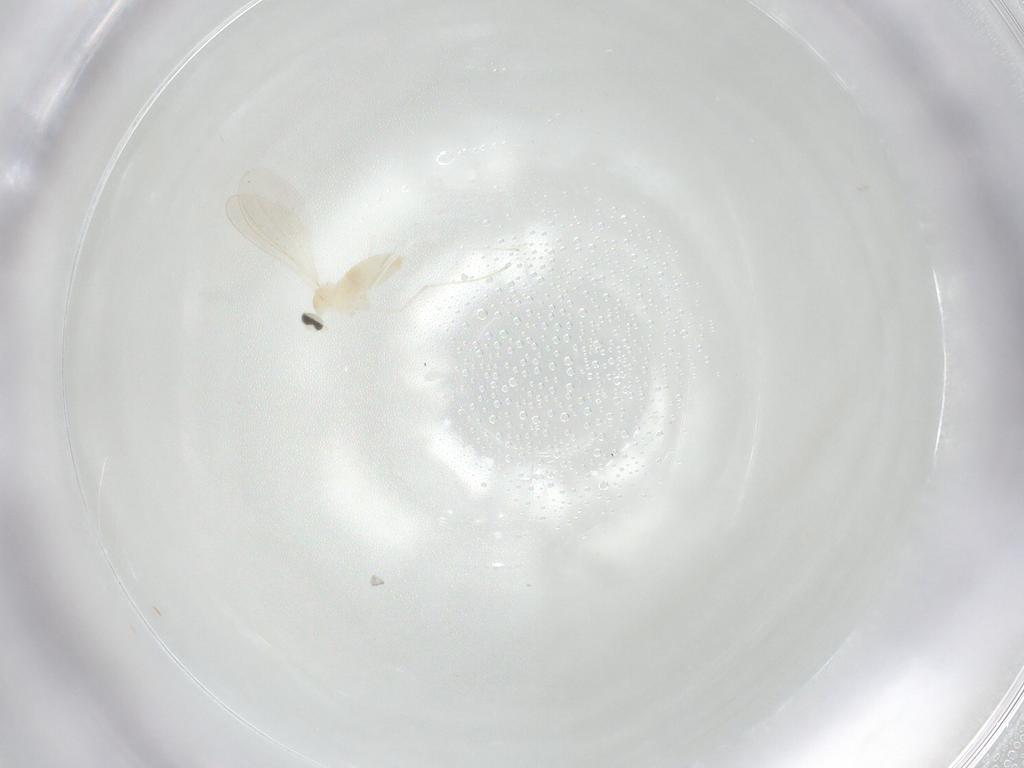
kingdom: Animalia
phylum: Arthropoda
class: Insecta
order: Diptera
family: Cecidomyiidae
